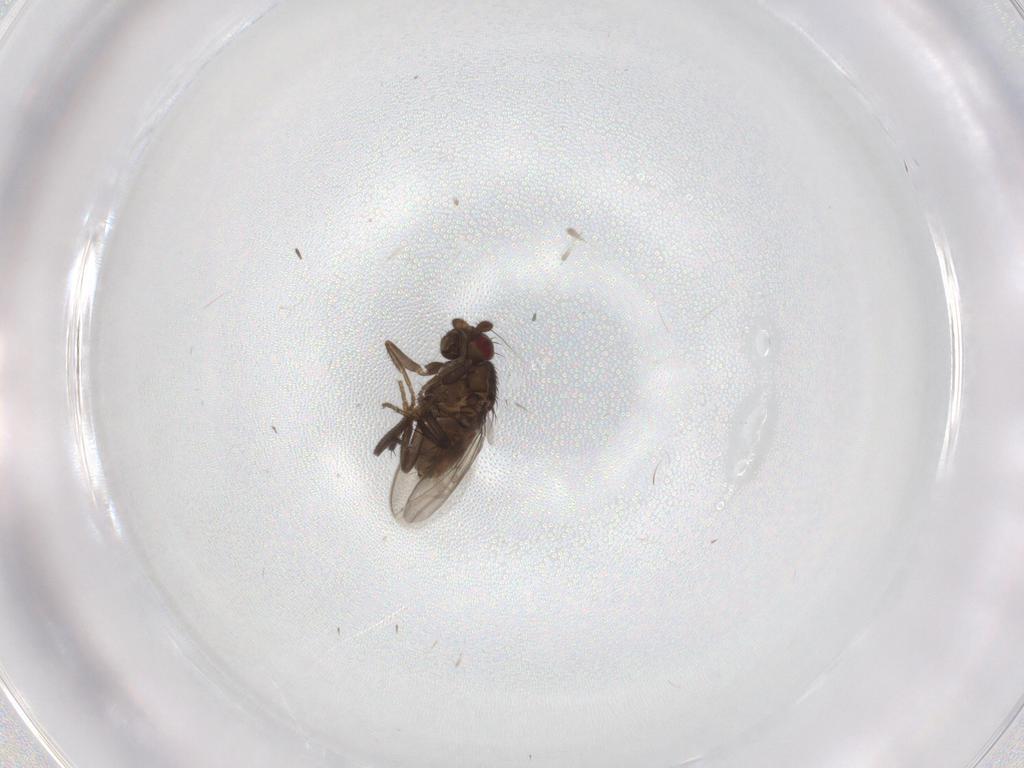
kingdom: Animalia
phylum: Arthropoda
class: Insecta
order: Diptera
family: Sphaeroceridae
